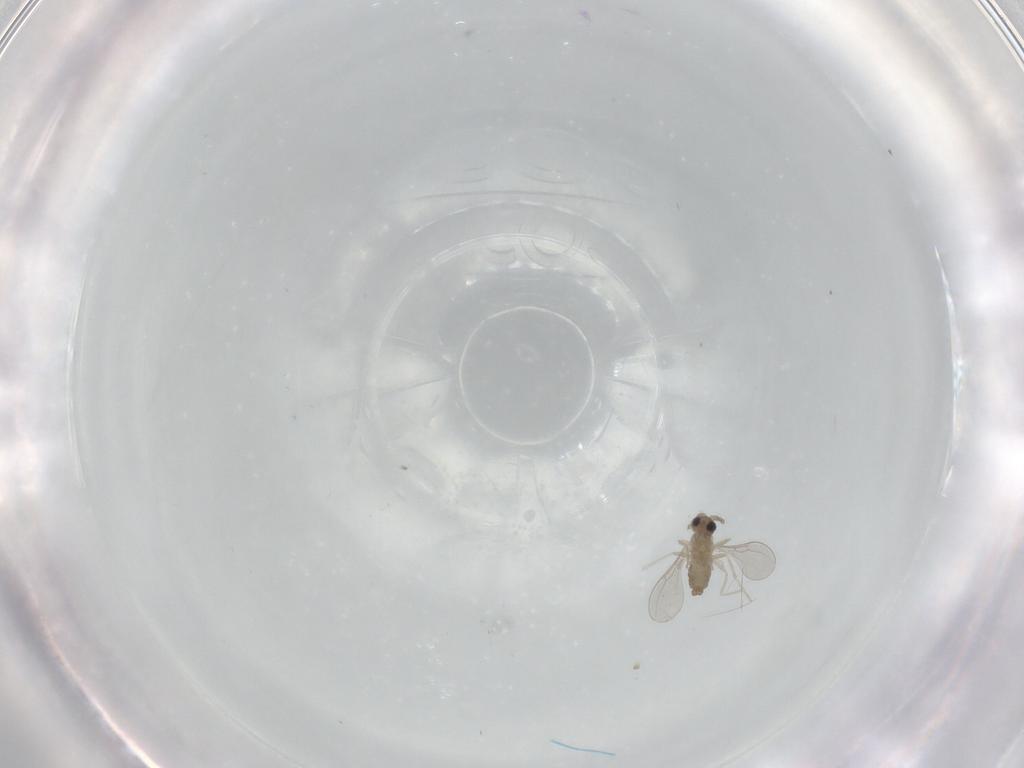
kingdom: Animalia
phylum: Arthropoda
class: Insecta
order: Diptera
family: Cecidomyiidae
